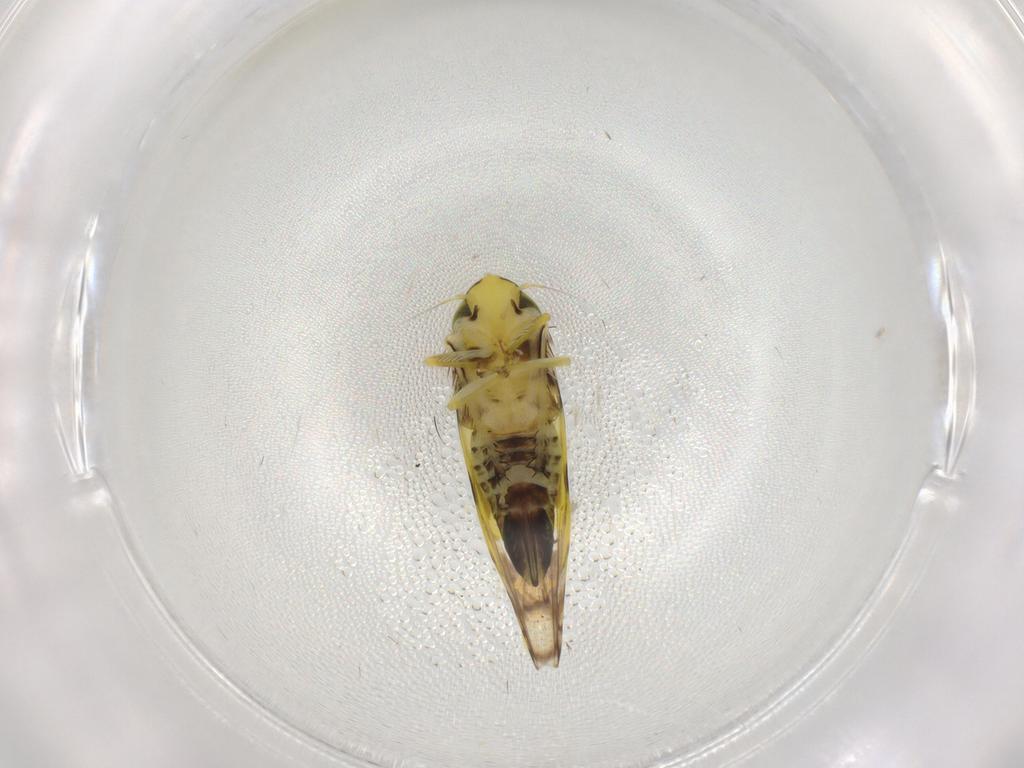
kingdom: Animalia
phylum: Arthropoda
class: Insecta
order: Hemiptera
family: Cicadellidae
